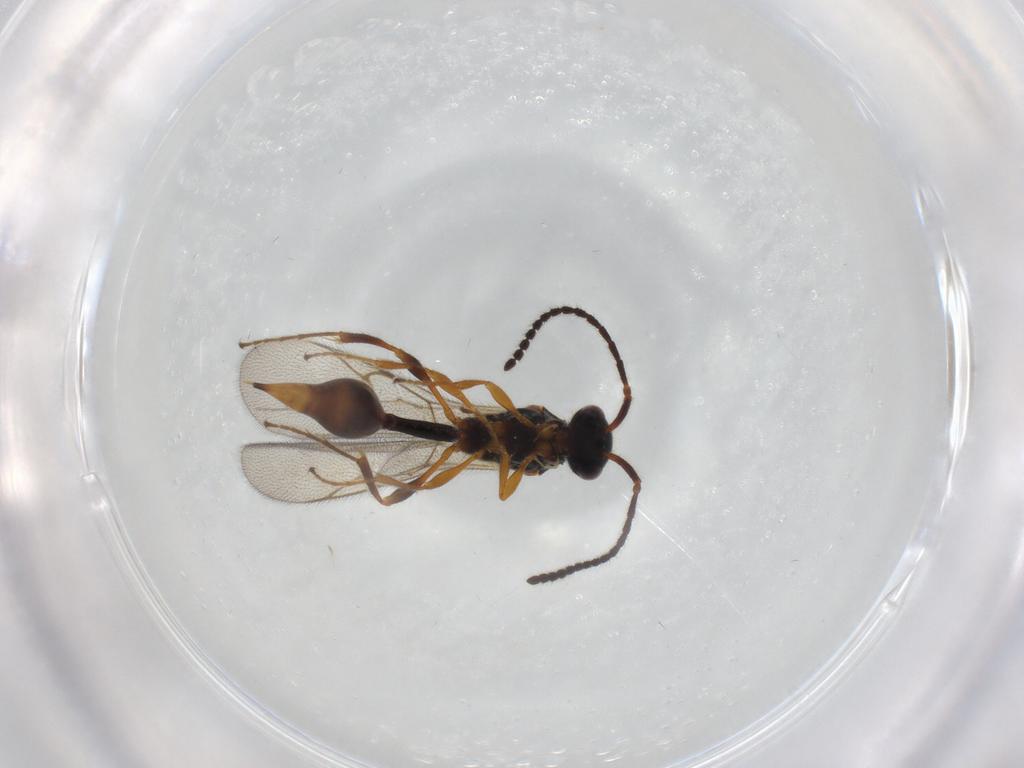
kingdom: Animalia
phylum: Arthropoda
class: Insecta
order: Hymenoptera
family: Diapriidae
